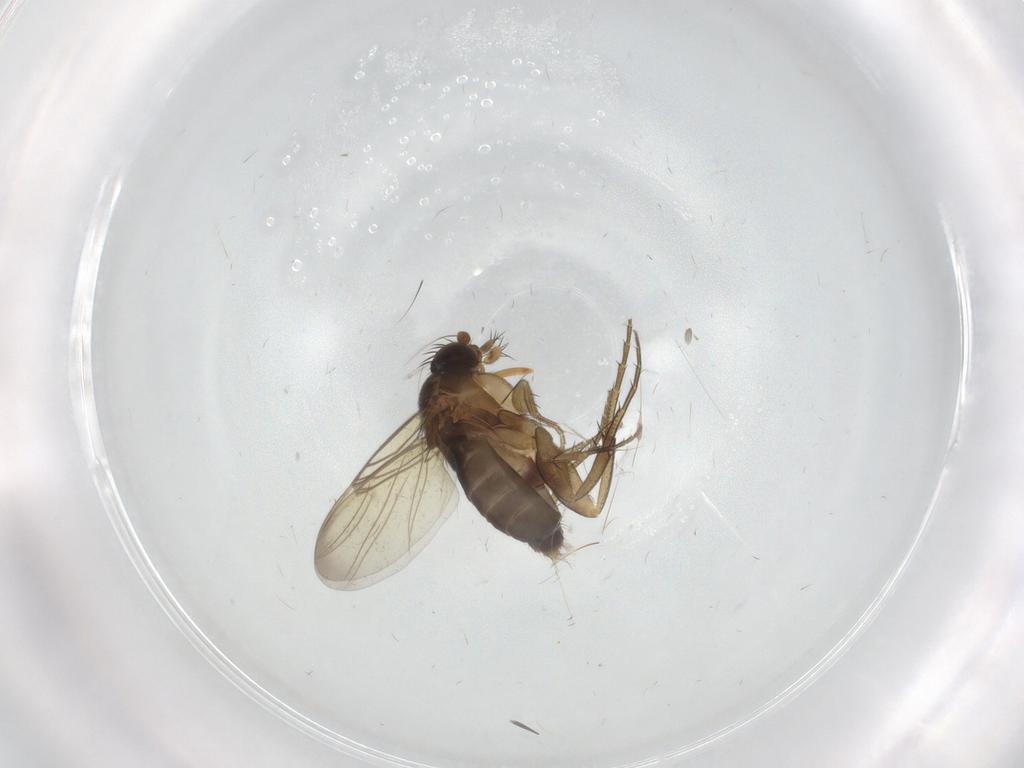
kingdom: Animalia
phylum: Arthropoda
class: Insecta
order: Diptera
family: Phoridae
